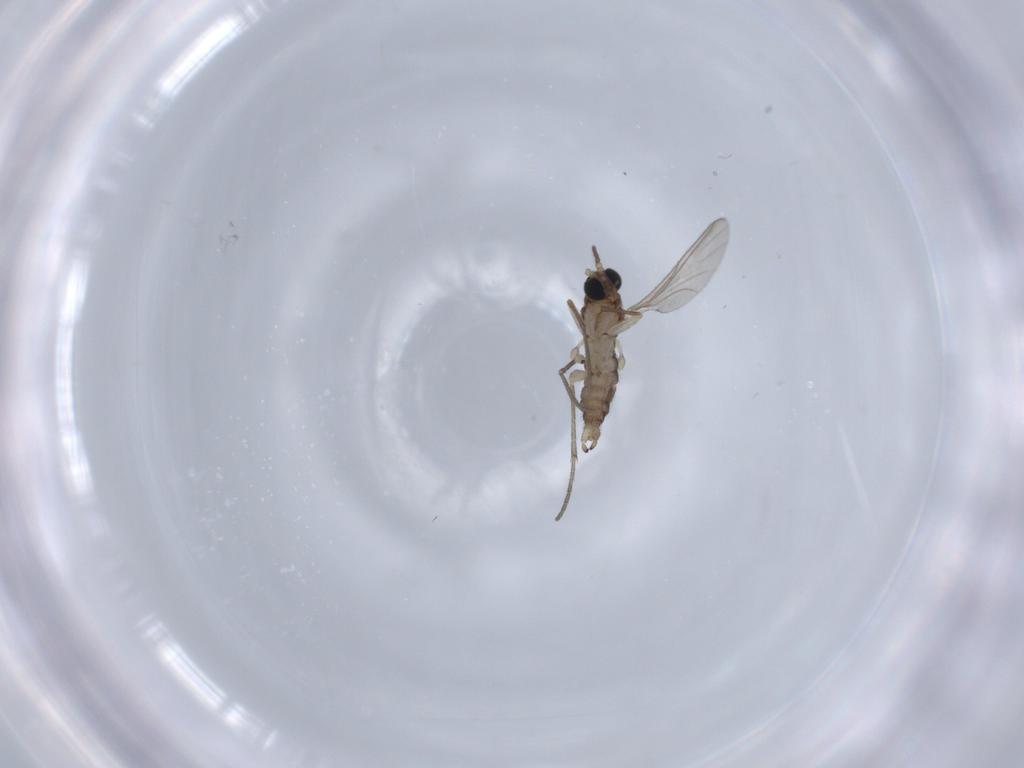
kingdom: Animalia
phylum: Arthropoda
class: Insecta
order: Diptera
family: Sciaridae
